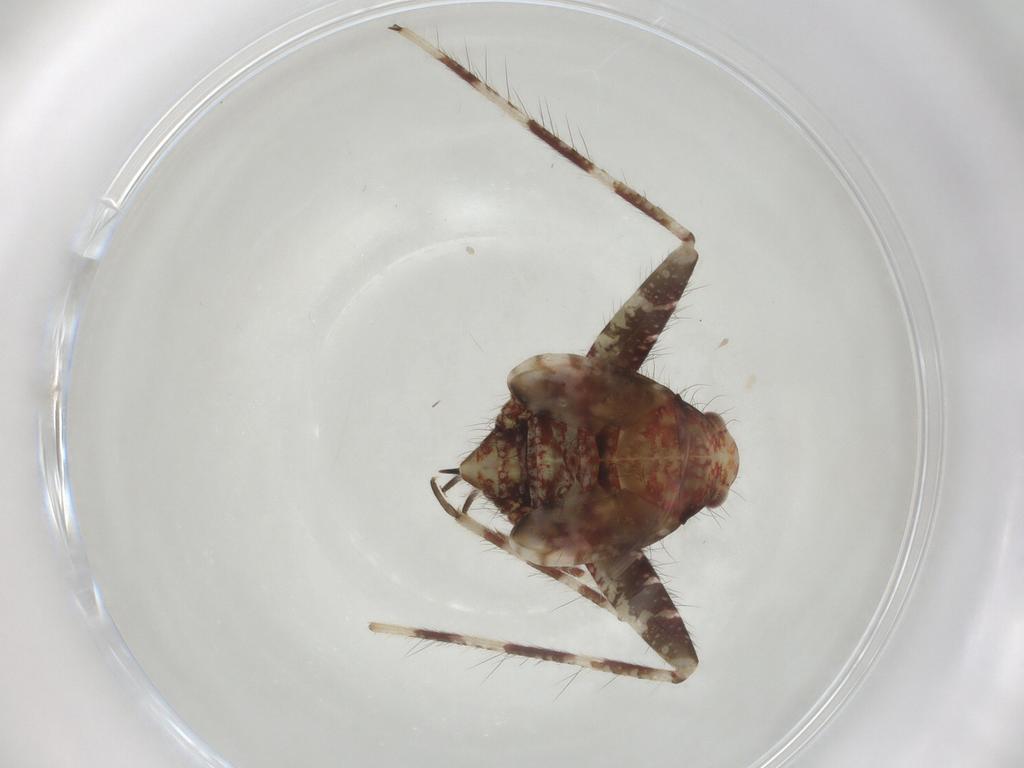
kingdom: Animalia
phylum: Arthropoda
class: Insecta
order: Hemiptera
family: Miridae
